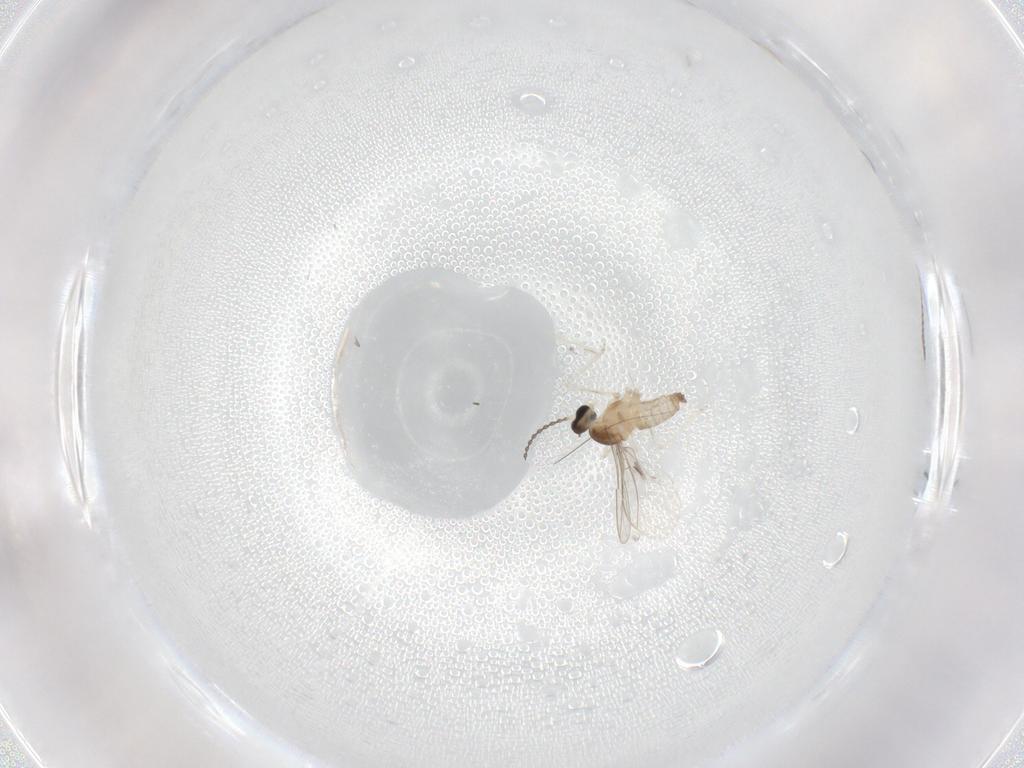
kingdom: Animalia
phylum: Arthropoda
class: Insecta
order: Diptera
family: Cecidomyiidae
